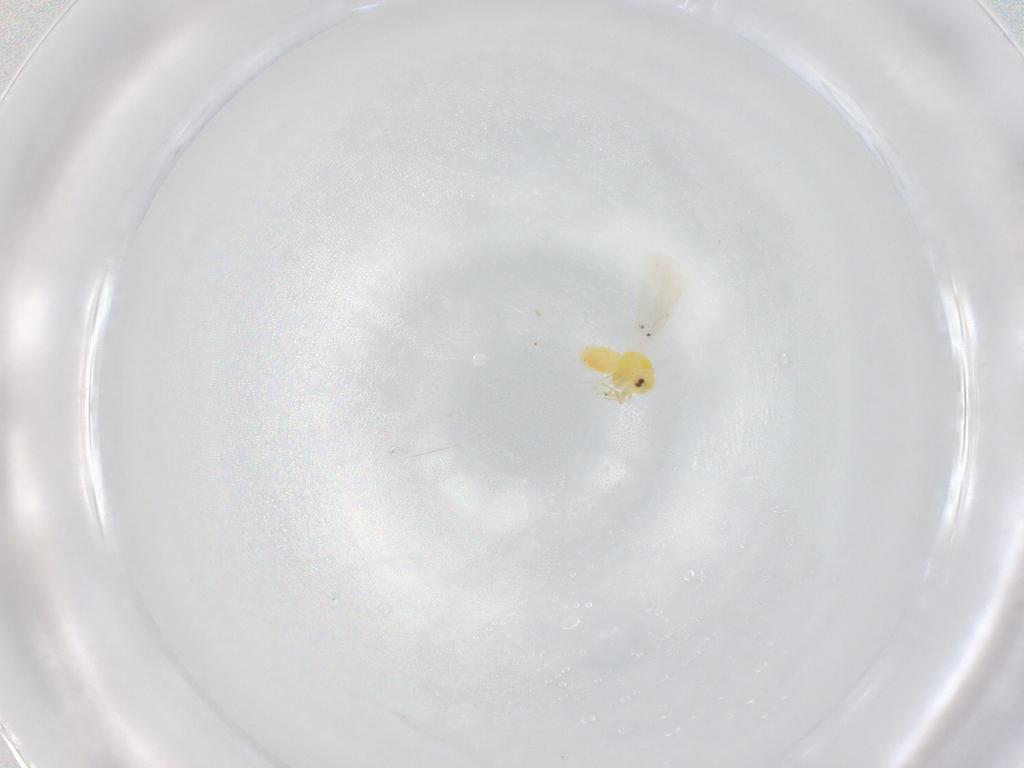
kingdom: Animalia
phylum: Arthropoda
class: Insecta
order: Hemiptera
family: Aleyrodidae
